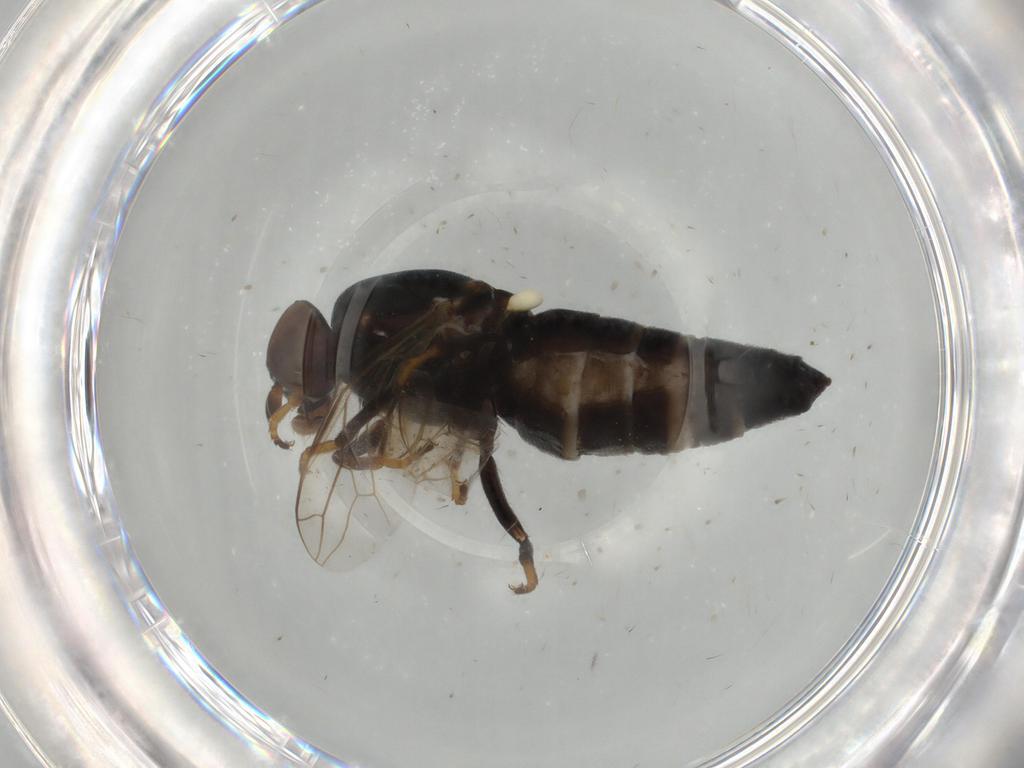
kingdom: Animalia
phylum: Arthropoda
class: Insecta
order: Diptera
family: Scenopinidae
